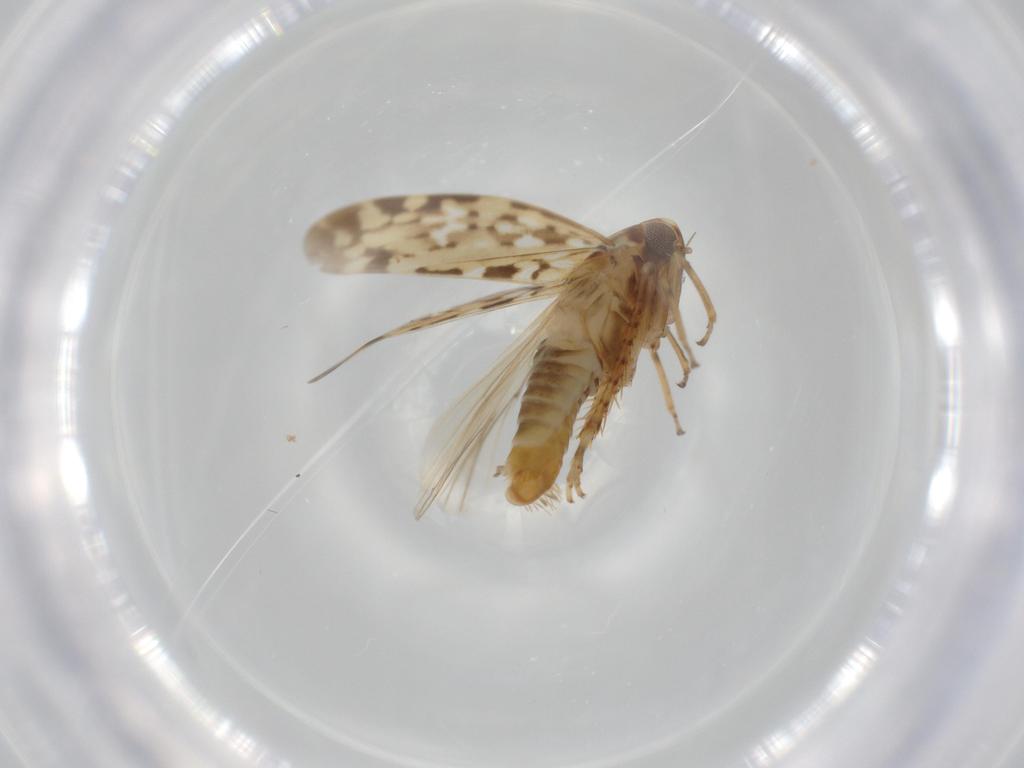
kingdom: Animalia
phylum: Arthropoda
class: Insecta
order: Hemiptera
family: Cicadellidae
